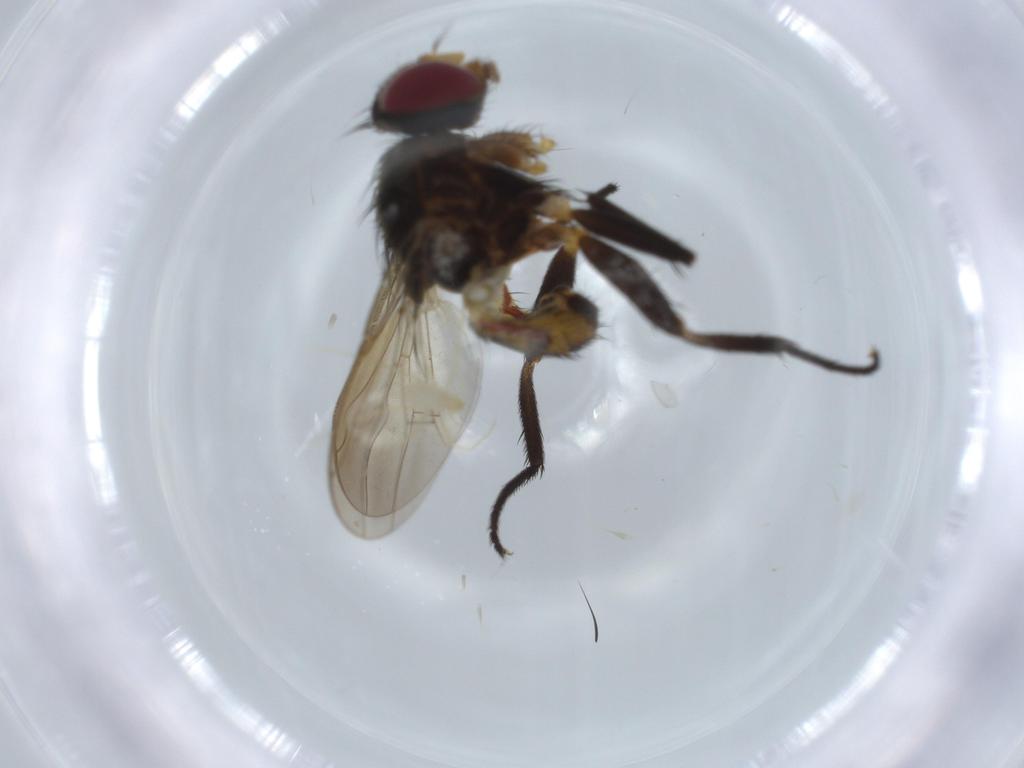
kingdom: Animalia
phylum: Arthropoda
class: Insecta
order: Diptera
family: Anthomyiidae
